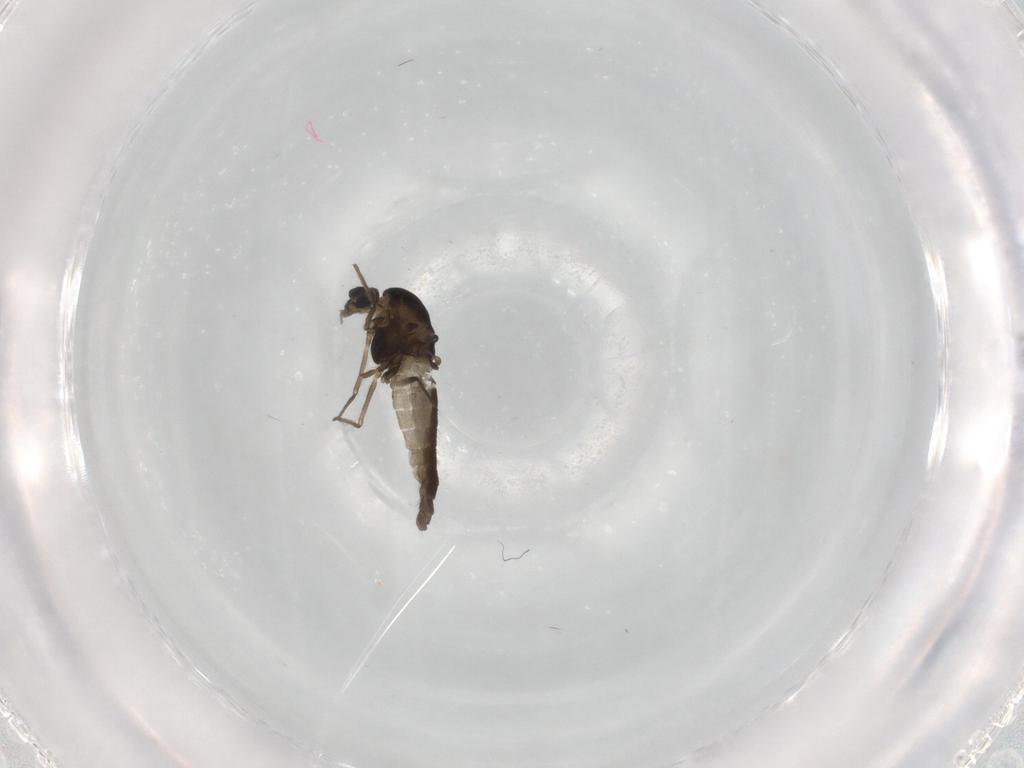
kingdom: Animalia
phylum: Arthropoda
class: Insecta
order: Diptera
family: Chironomidae
